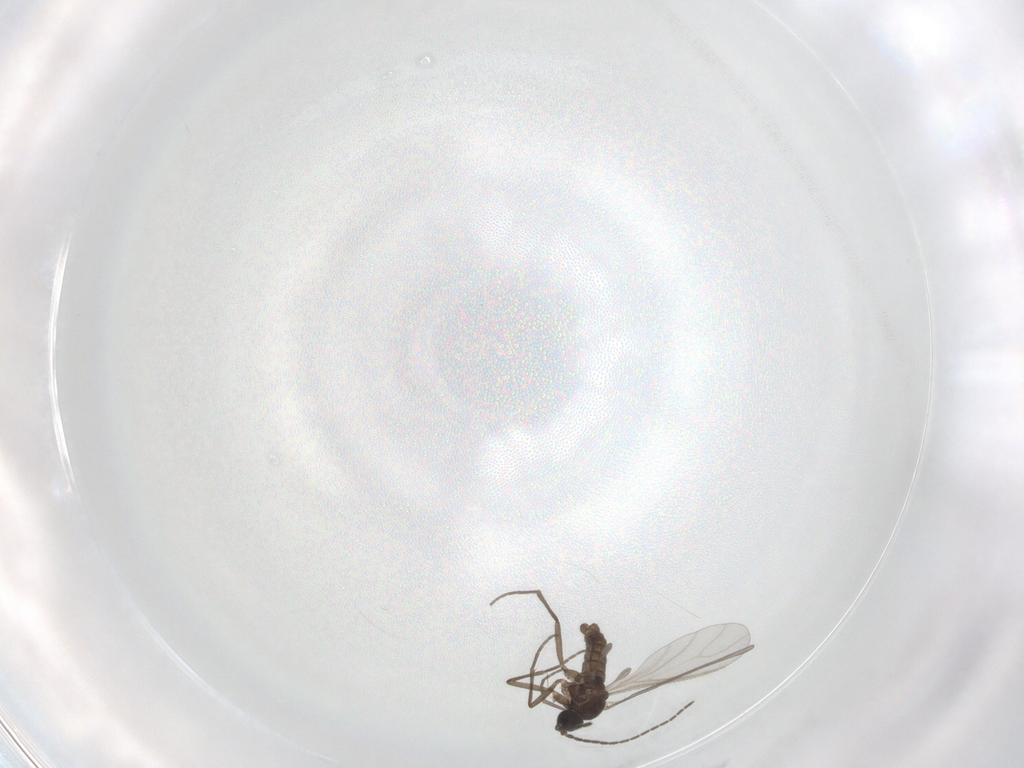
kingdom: Animalia
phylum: Arthropoda
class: Insecta
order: Diptera
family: Sciaridae
